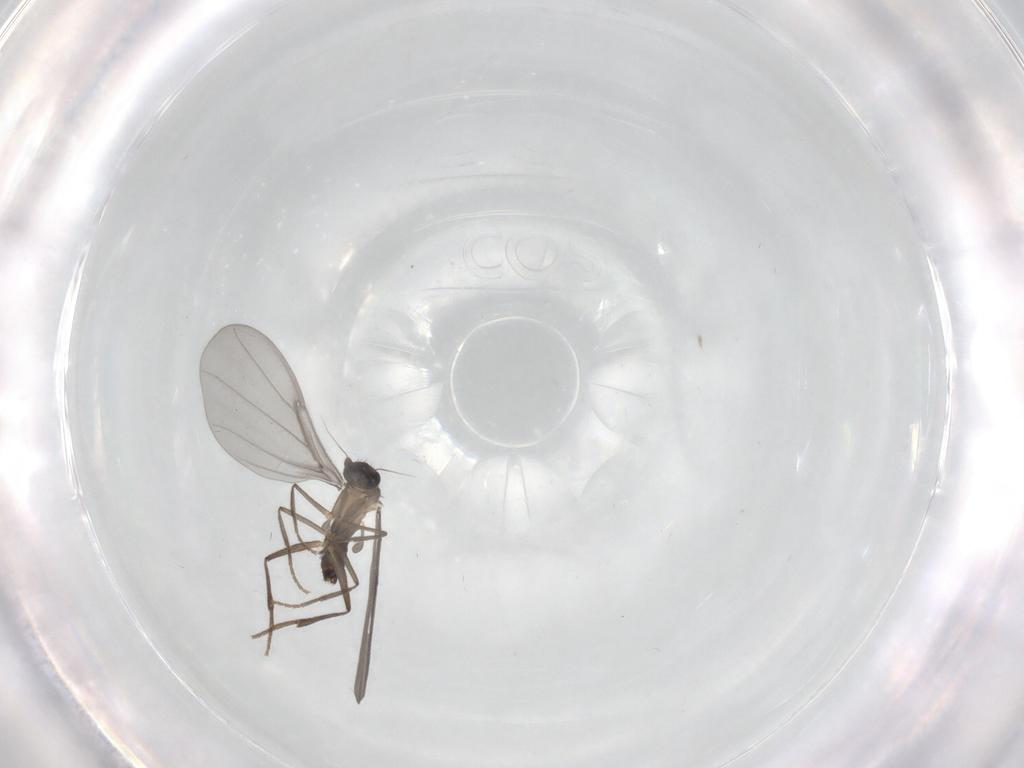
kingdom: Animalia
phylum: Arthropoda
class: Insecta
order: Diptera
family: Phoridae
